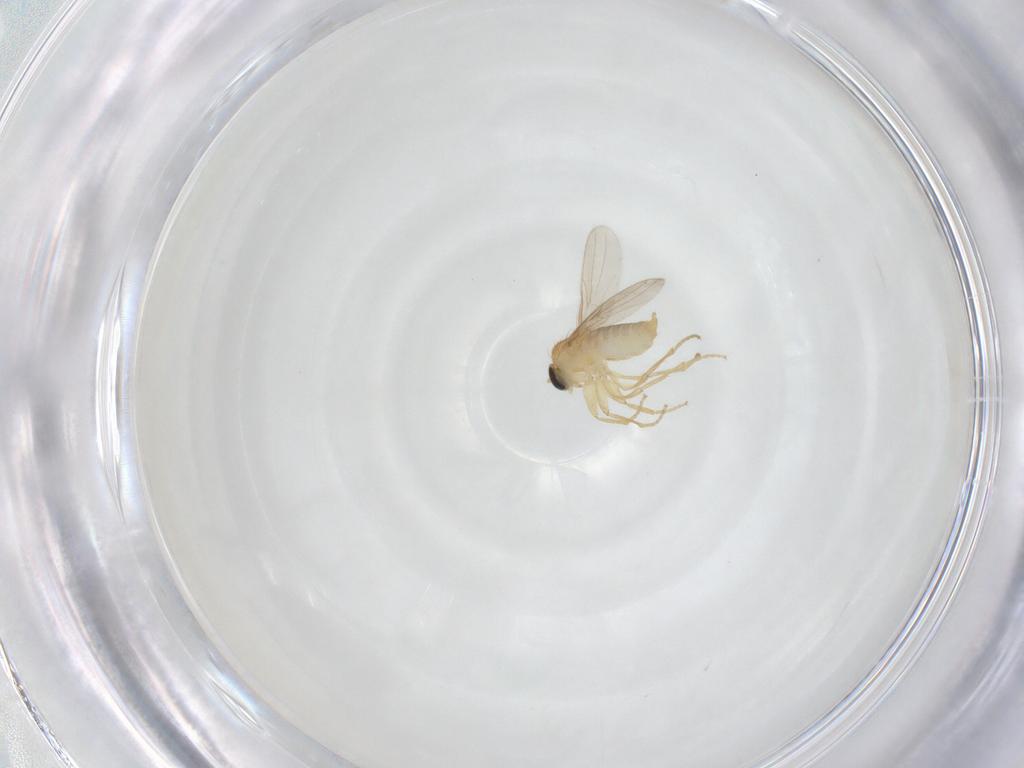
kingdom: Animalia
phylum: Arthropoda
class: Insecta
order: Diptera
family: Hybotidae
